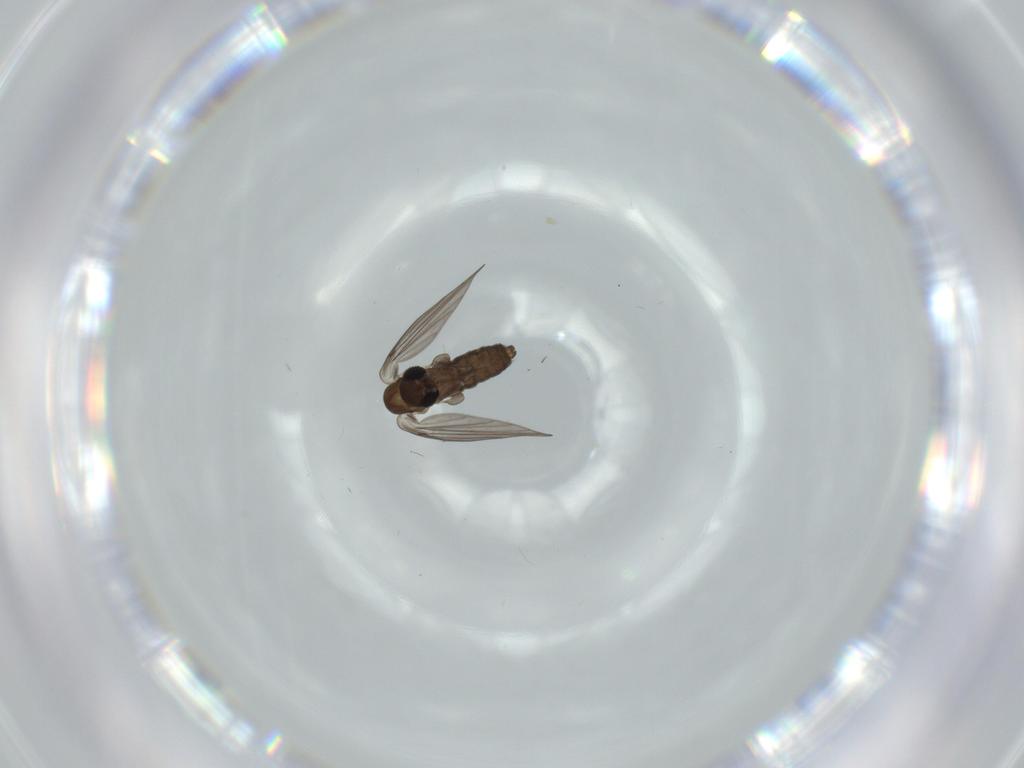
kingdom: Animalia
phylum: Arthropoda
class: Insecta
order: Diptera
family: Psychodidae
